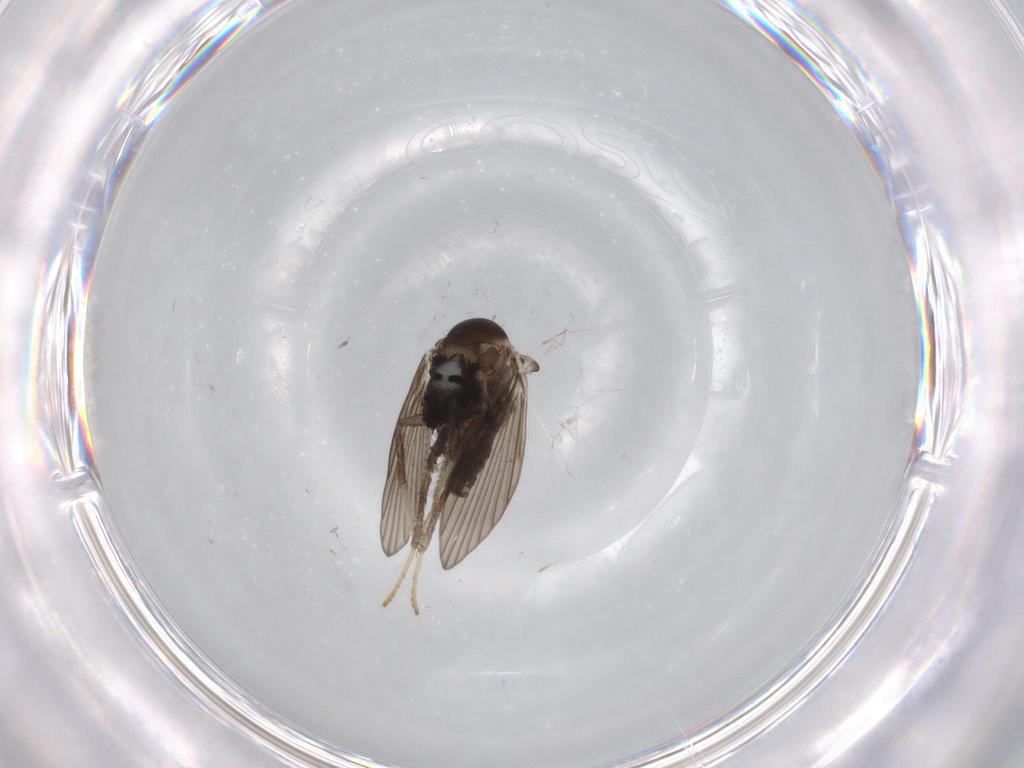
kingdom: Animalia
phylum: Arthropoda
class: Insecta
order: Diptera
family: Phoridae
